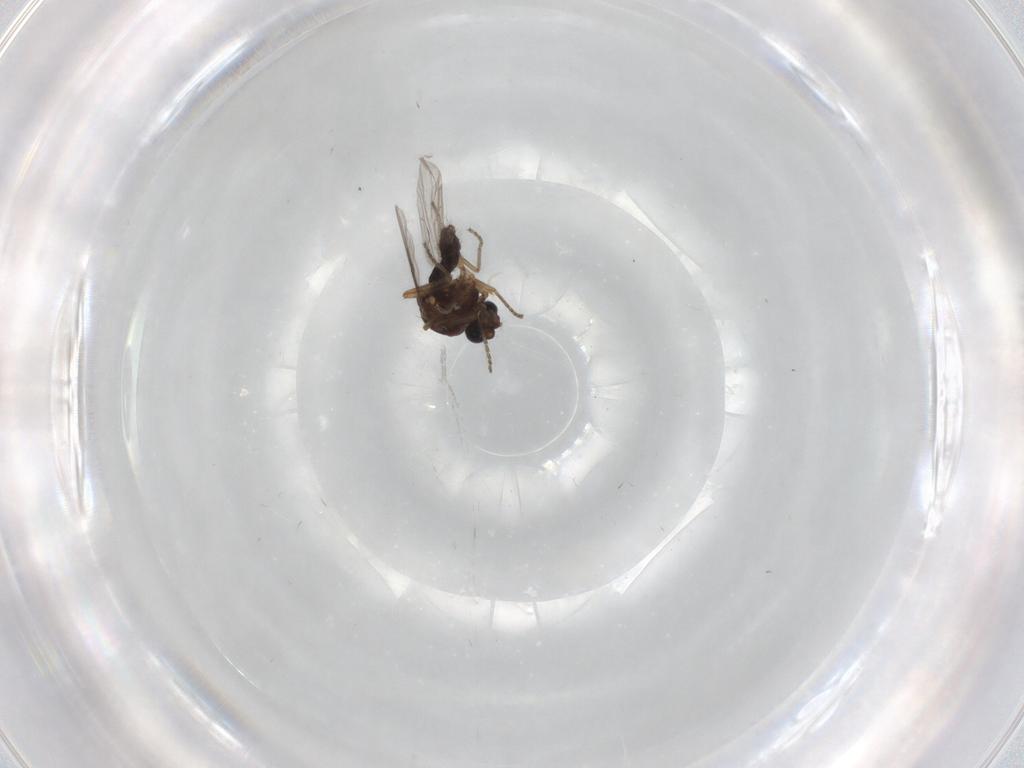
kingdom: Animalia
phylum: Arthropoda
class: Insecta
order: Diptera
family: Ceratopogonidae
